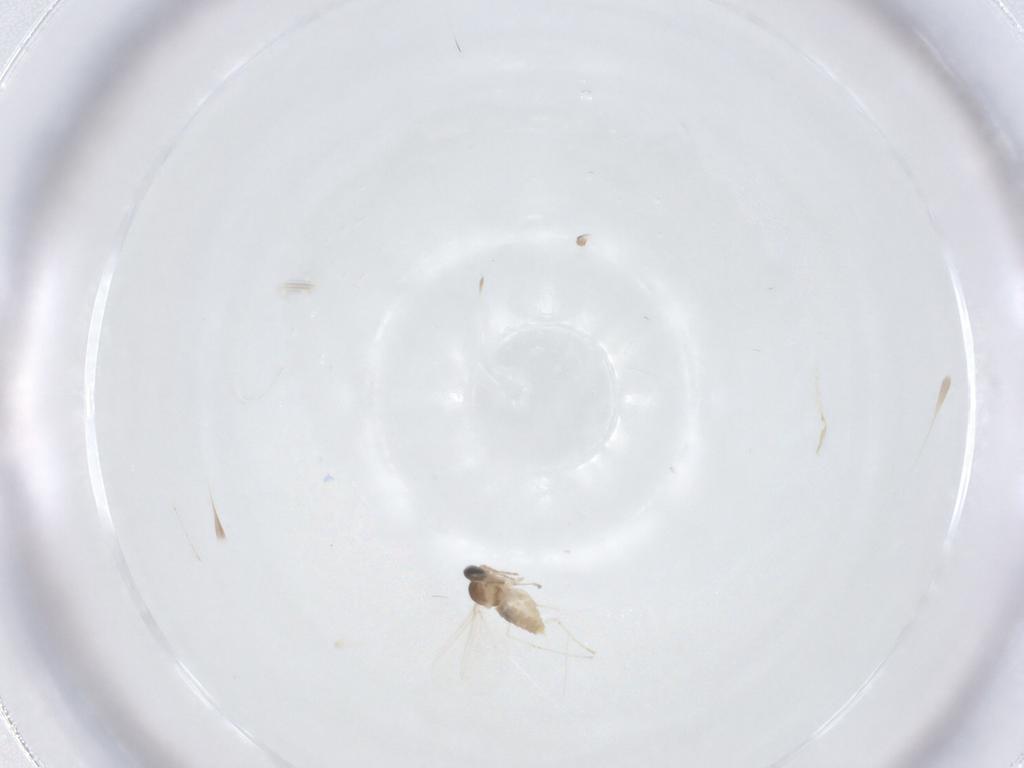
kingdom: Animalia
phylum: Arthropoda
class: Insecta
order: Diptera
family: Cecidomyiidae
